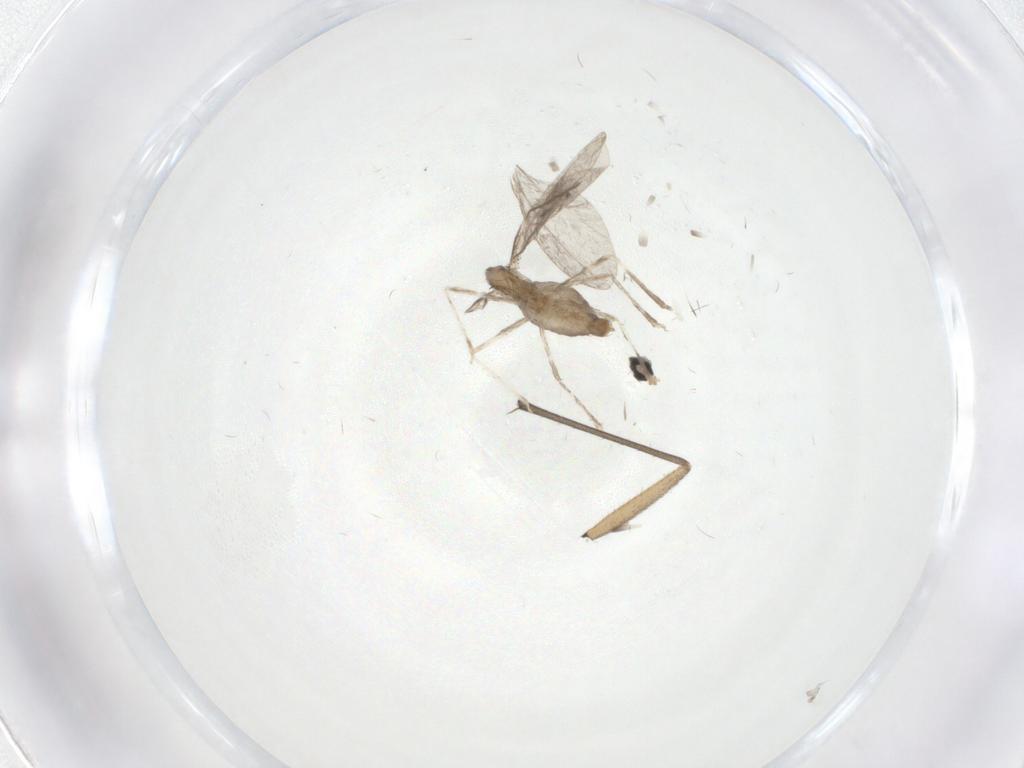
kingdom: Animalia
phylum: Arthropoda
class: Insecta
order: Diptera
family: Cecidomyiidae
